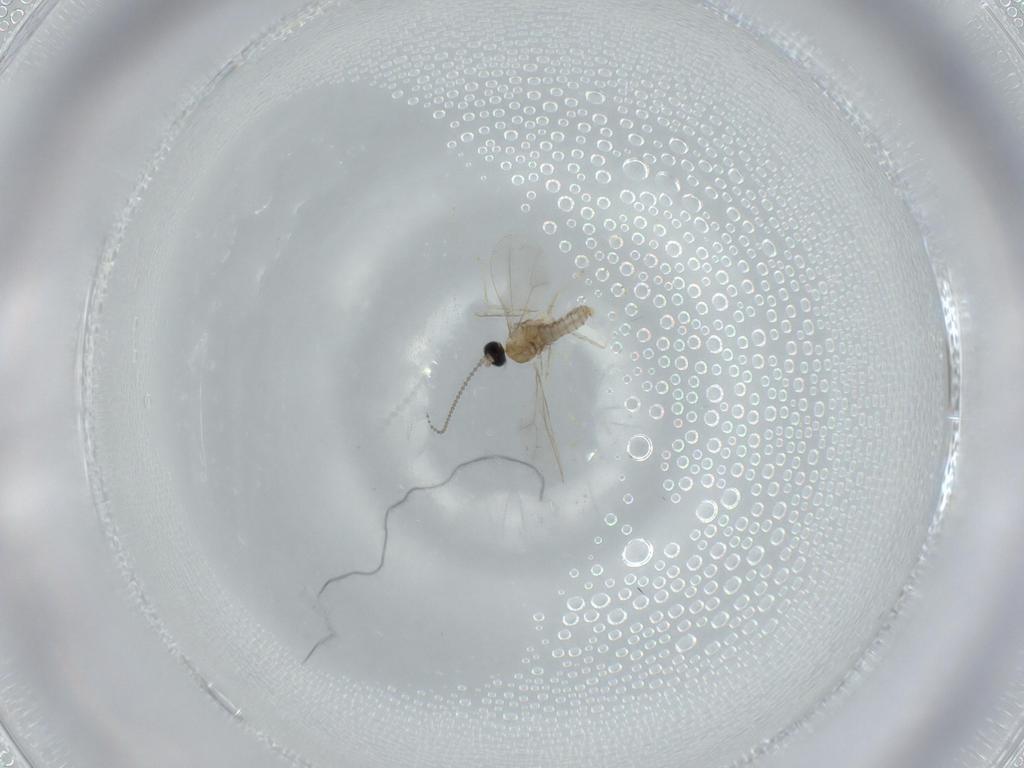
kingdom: Animalia
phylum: Arthropoda
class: Insecta
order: Diptera
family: Cecidomyiidae
